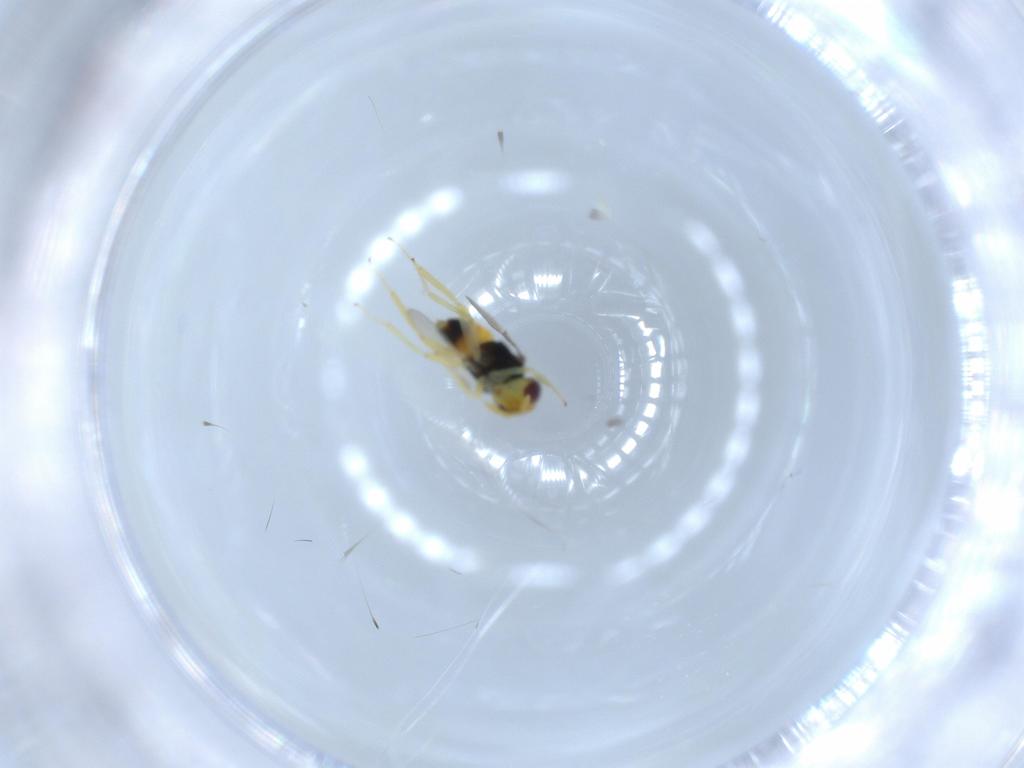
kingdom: Animalia
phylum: Arthropoda
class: Insecta
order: Hymenoptera
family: Aphelinidae
